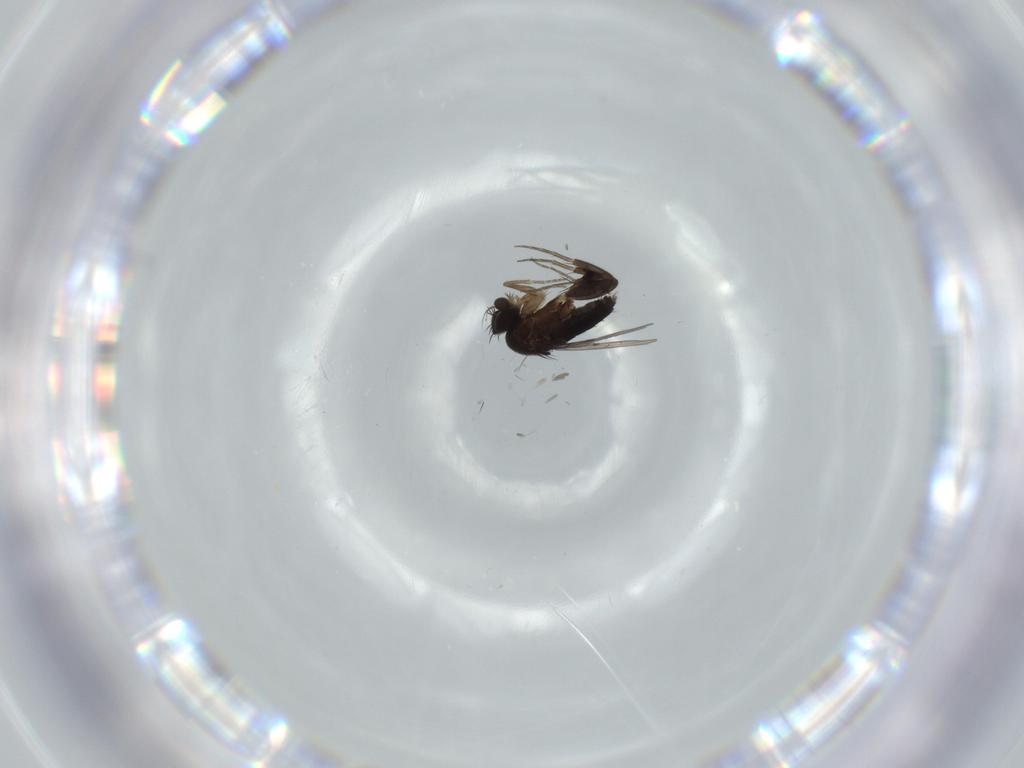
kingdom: Animalia
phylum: Arthropoda
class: Insecta
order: Diptera
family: Phoridae
